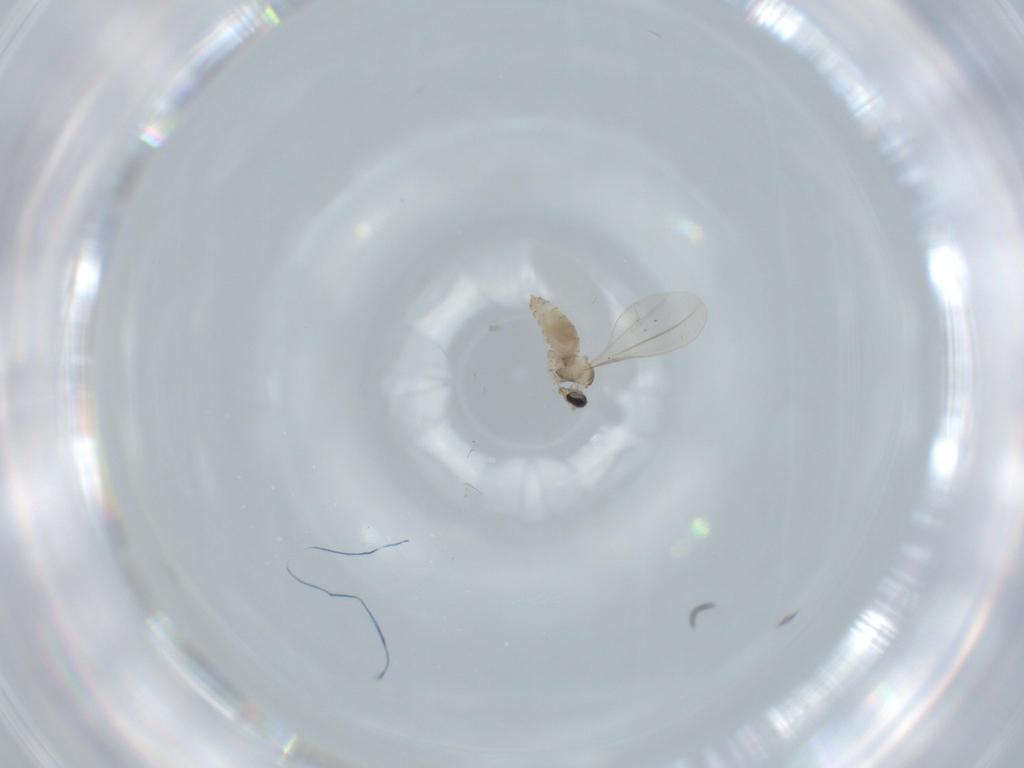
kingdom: Animalia
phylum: Arthropoda
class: Insecta
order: Diptera
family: Cecidomyiidae
